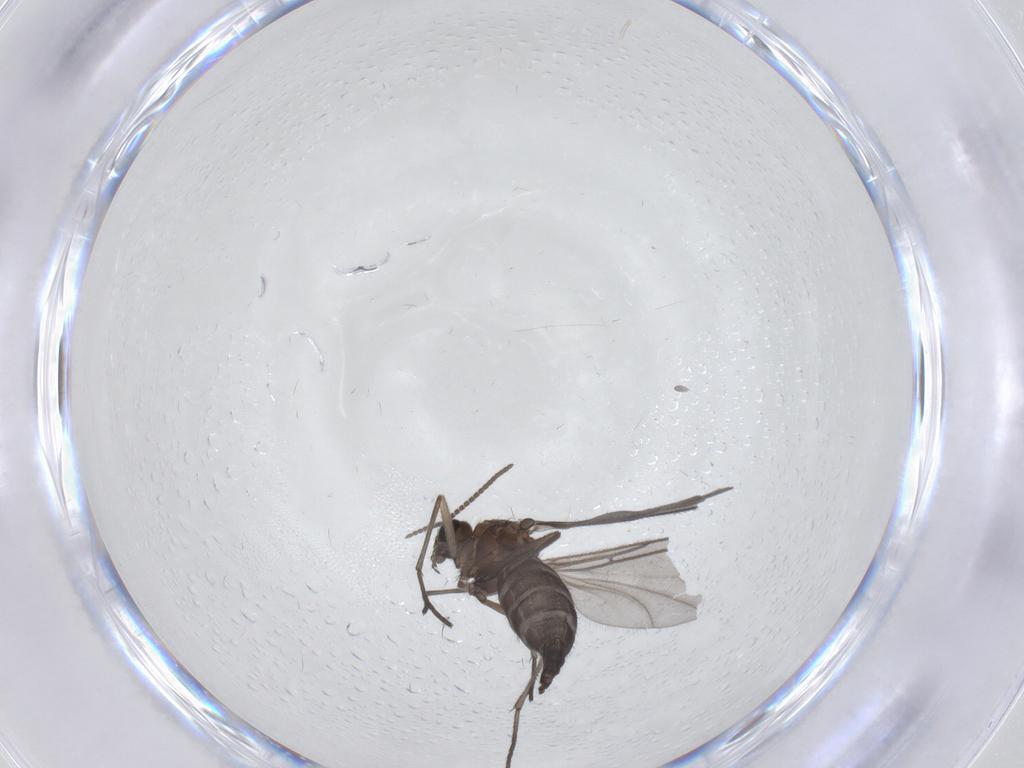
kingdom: Animalia
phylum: Arthropoda
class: Insecta
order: Diptera
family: Sciaridae
